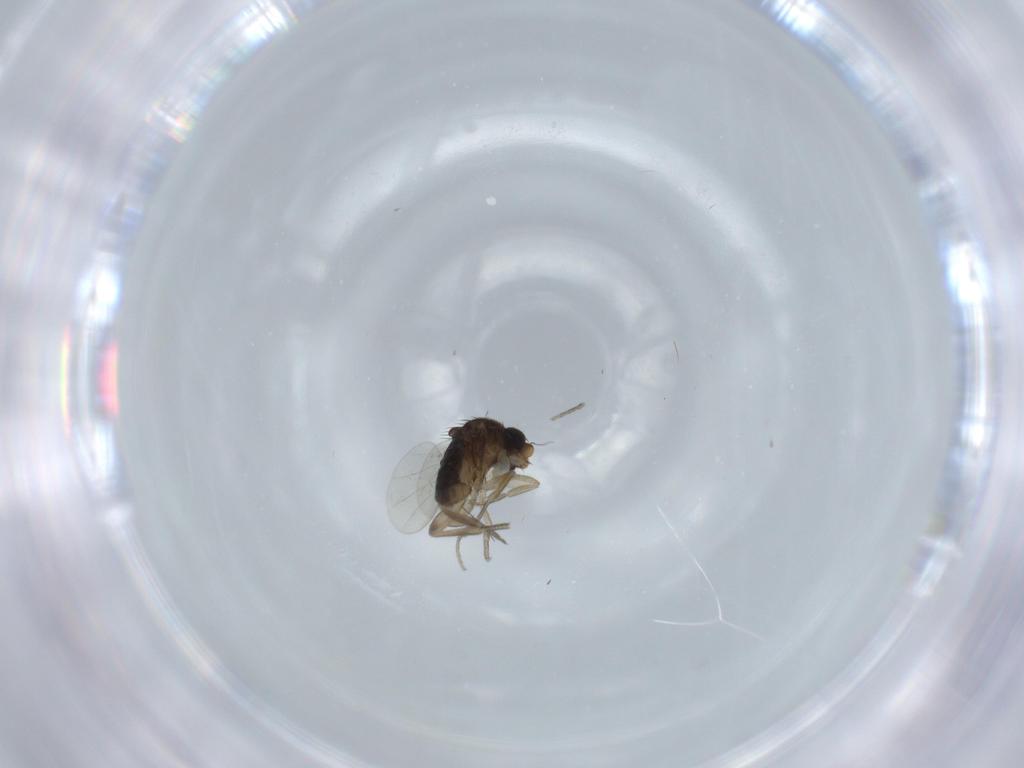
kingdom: Animalia
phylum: Arthropoda
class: Insecta
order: Diptera
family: Phoridae
